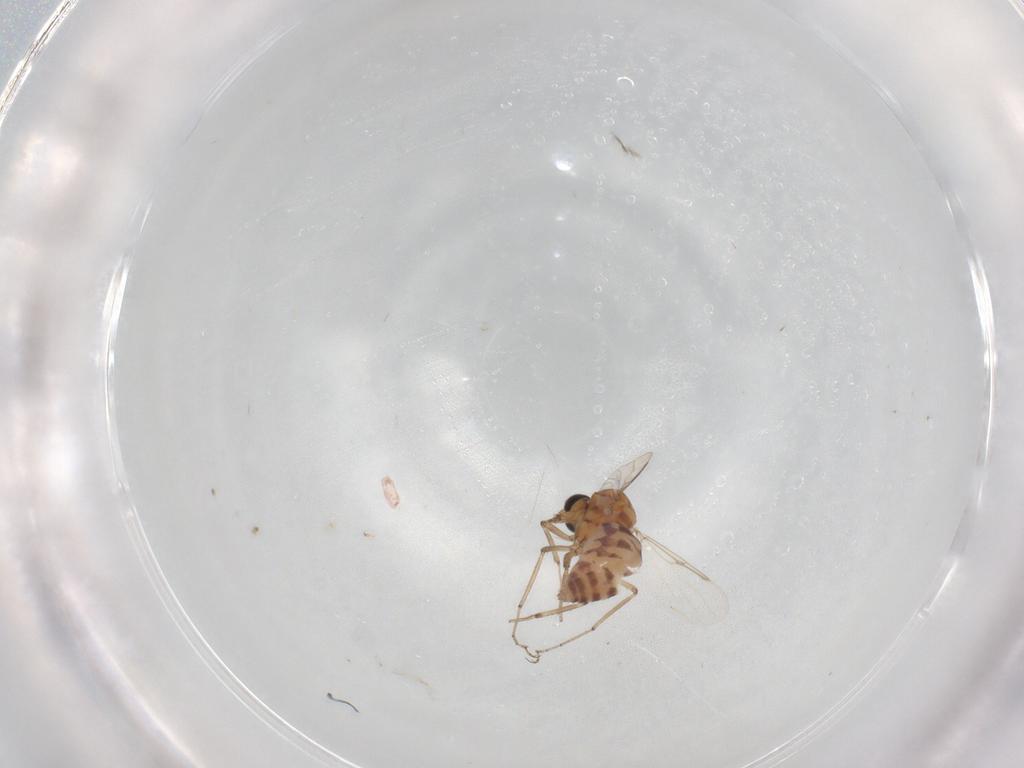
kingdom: Animalia
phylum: Arthropoda
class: Insecta
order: Diptera
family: Ceratopogonidae
